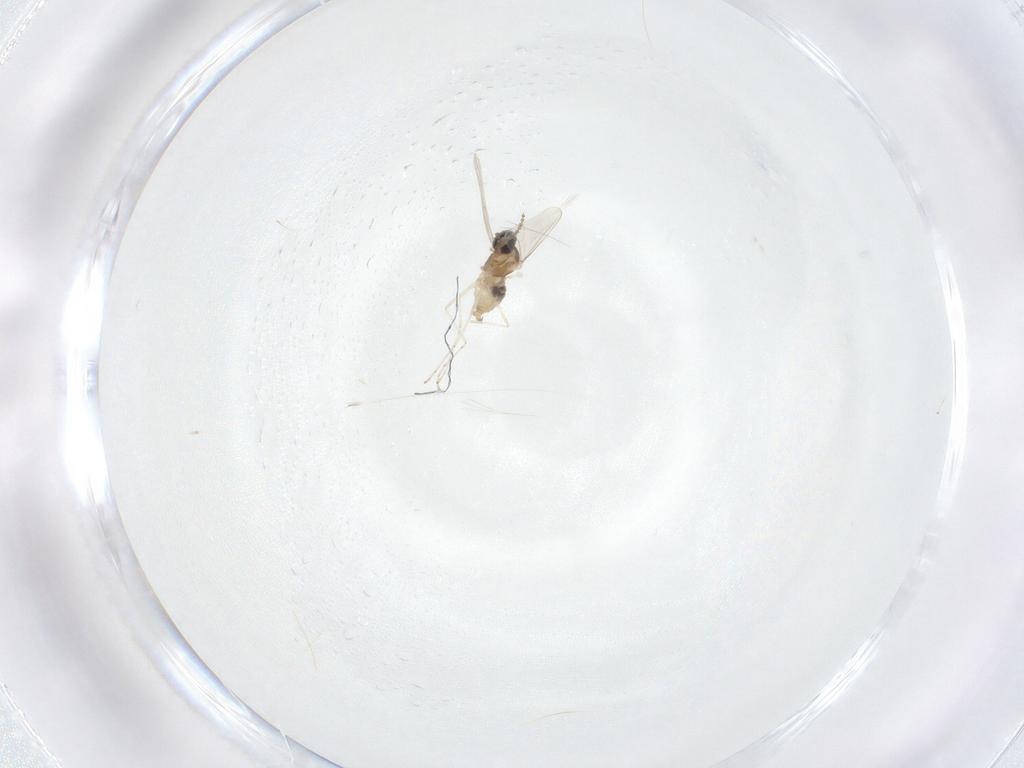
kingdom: Animalia
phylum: Arthropoda
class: Insecta
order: Diptera
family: Cecidomyiidae
